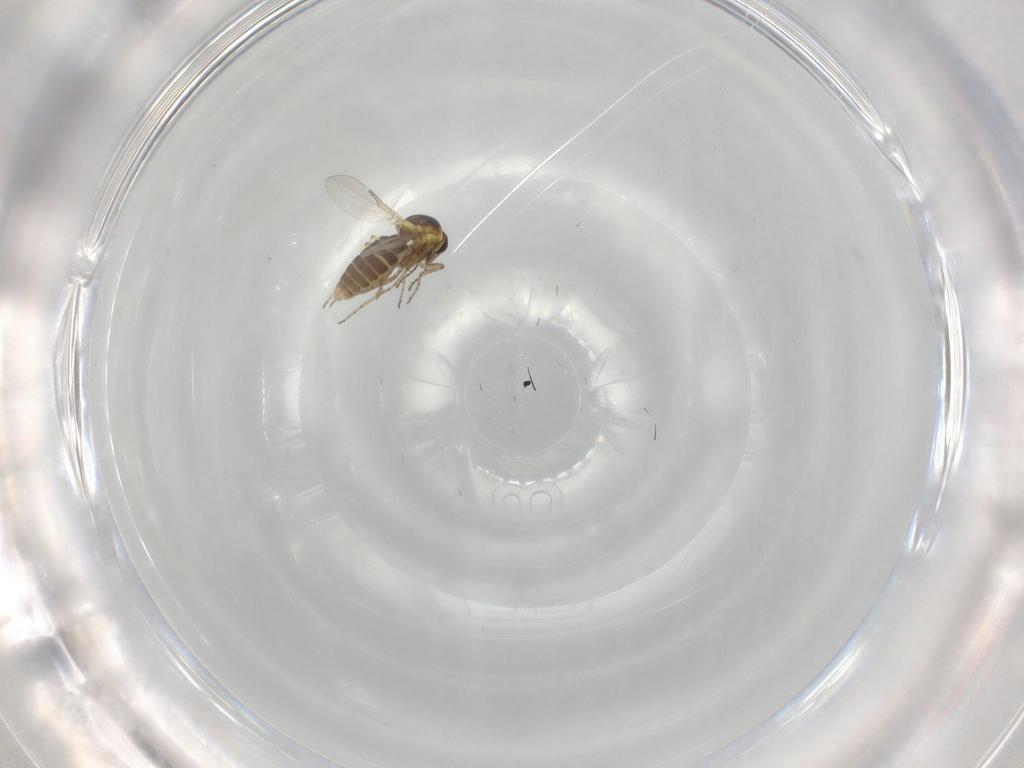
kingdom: Animalia
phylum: Arthropoda
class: Insecta
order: Diptera
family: Ceratopogonidae
